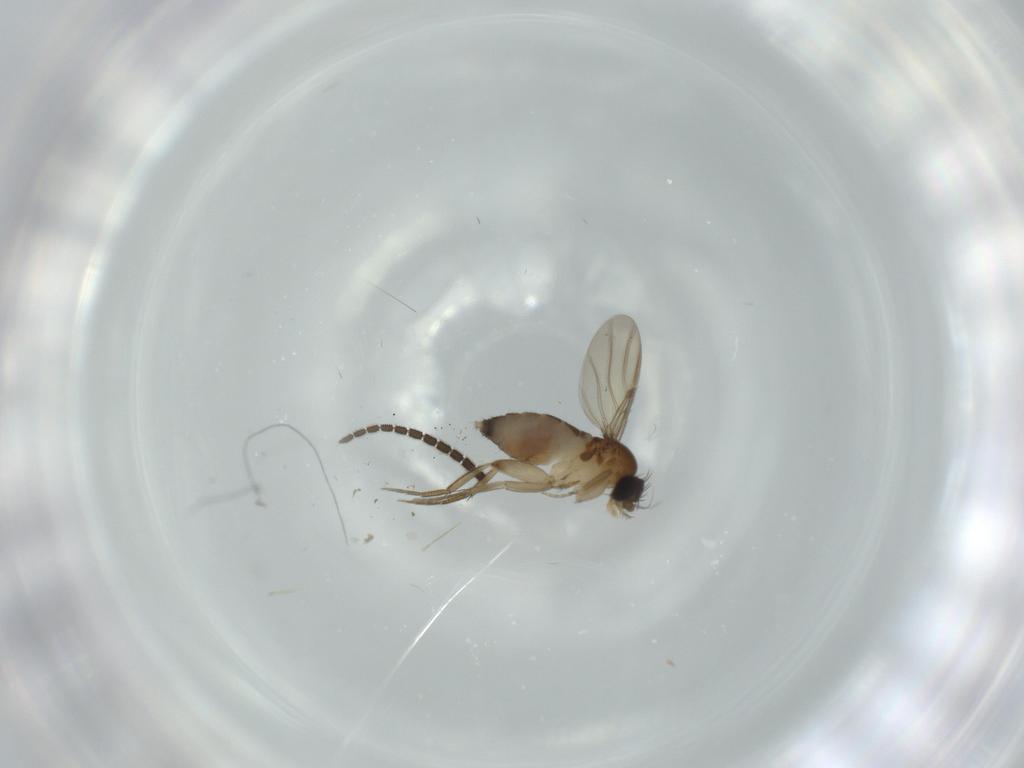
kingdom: Animalia
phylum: Arthropoda
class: Insecta
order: Diptera
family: Phoridae
